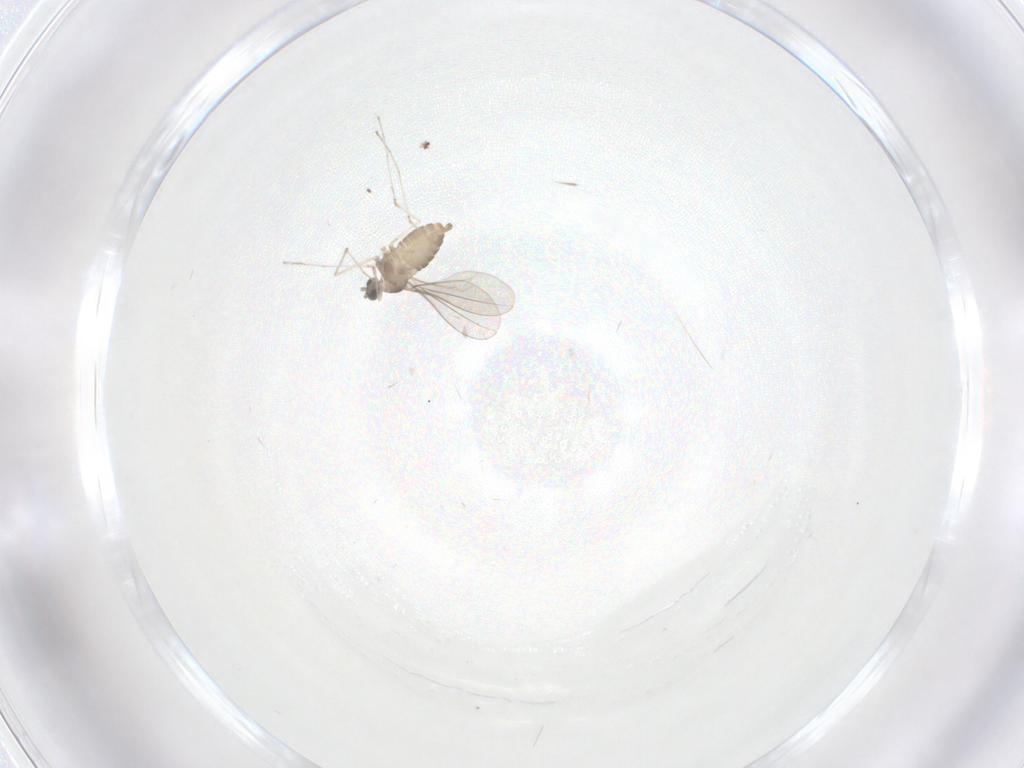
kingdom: Animalia
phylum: Arthropoda
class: Insecta
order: Diptera
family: Phoridae
